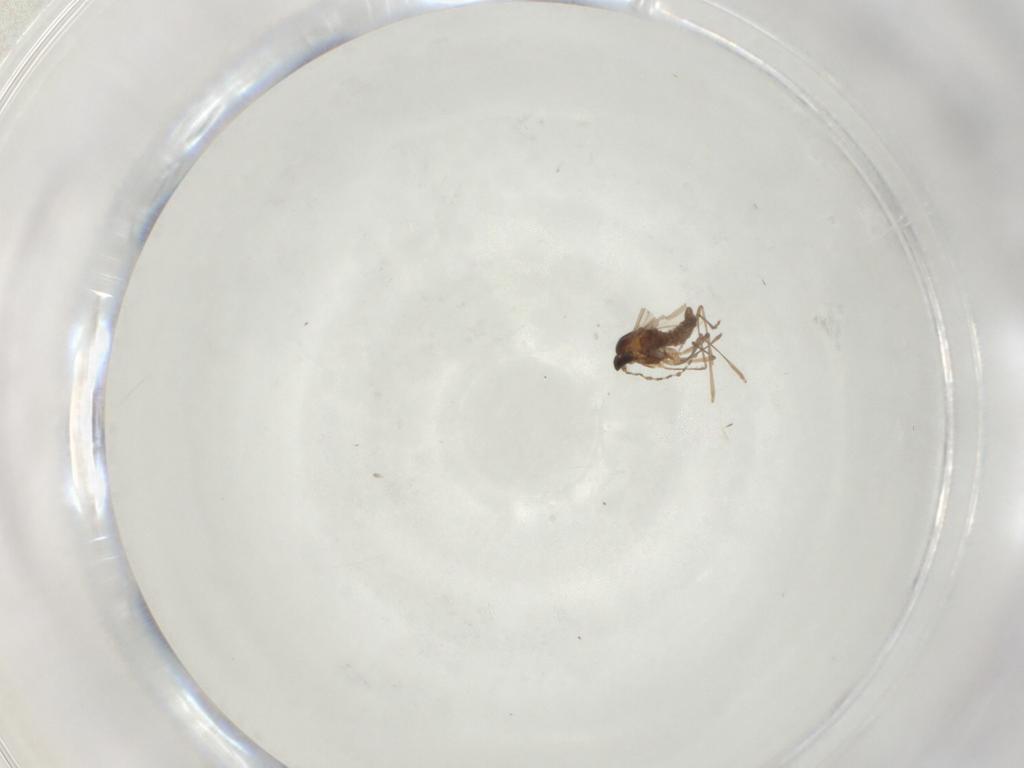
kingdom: Animalia
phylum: Arthropoda
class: Insecta
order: Diptera
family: Cecidomyiidae
